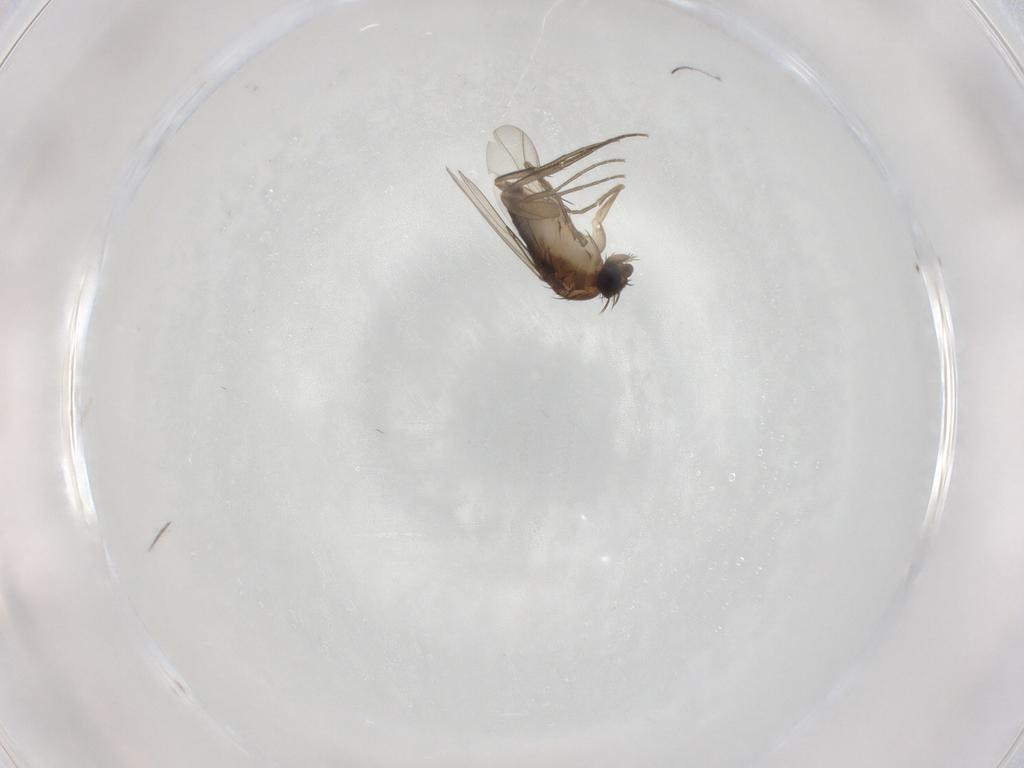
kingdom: Animalia
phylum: Arthropoda
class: Insecta
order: Diptera
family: Phoridae
